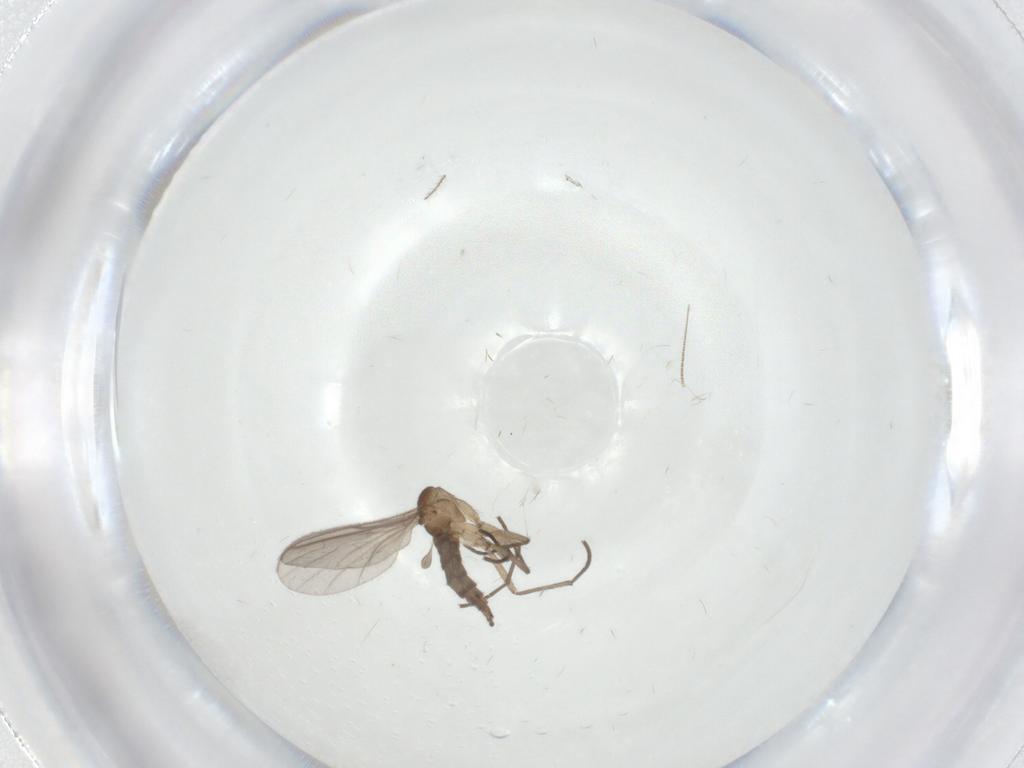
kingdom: Animalia
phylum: Arthropoda
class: Insecta
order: Diptera
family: Sciaridae
